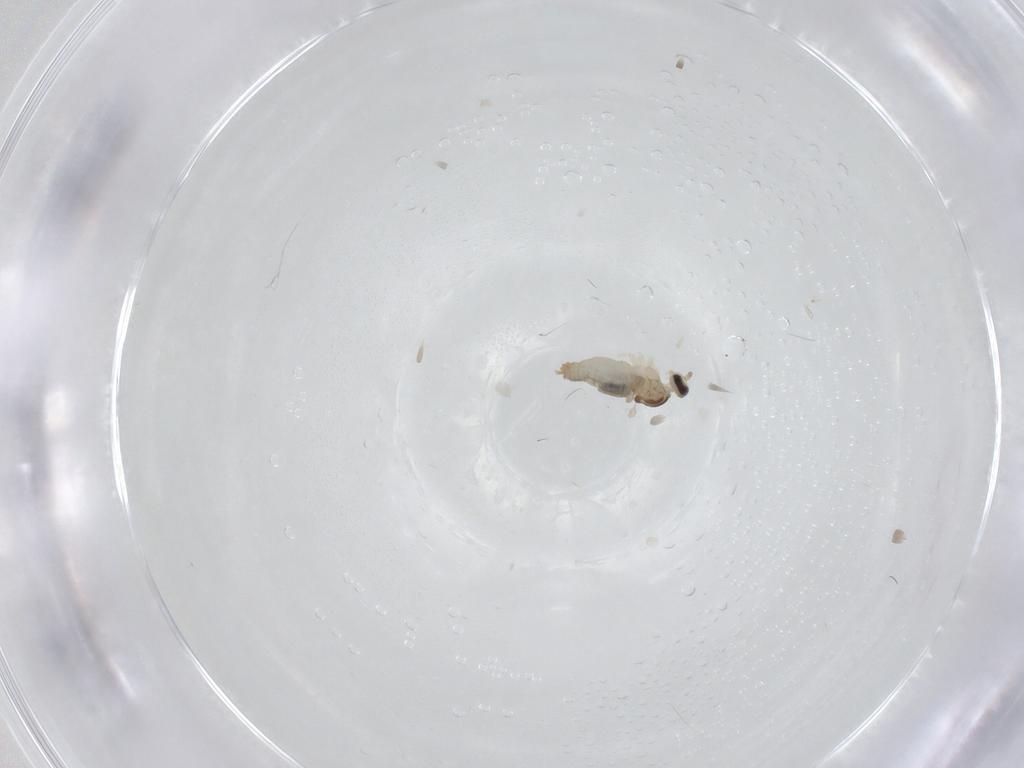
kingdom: Animalia
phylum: Arthropoda
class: Insecta
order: Diptera
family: Cecidomyiidae
